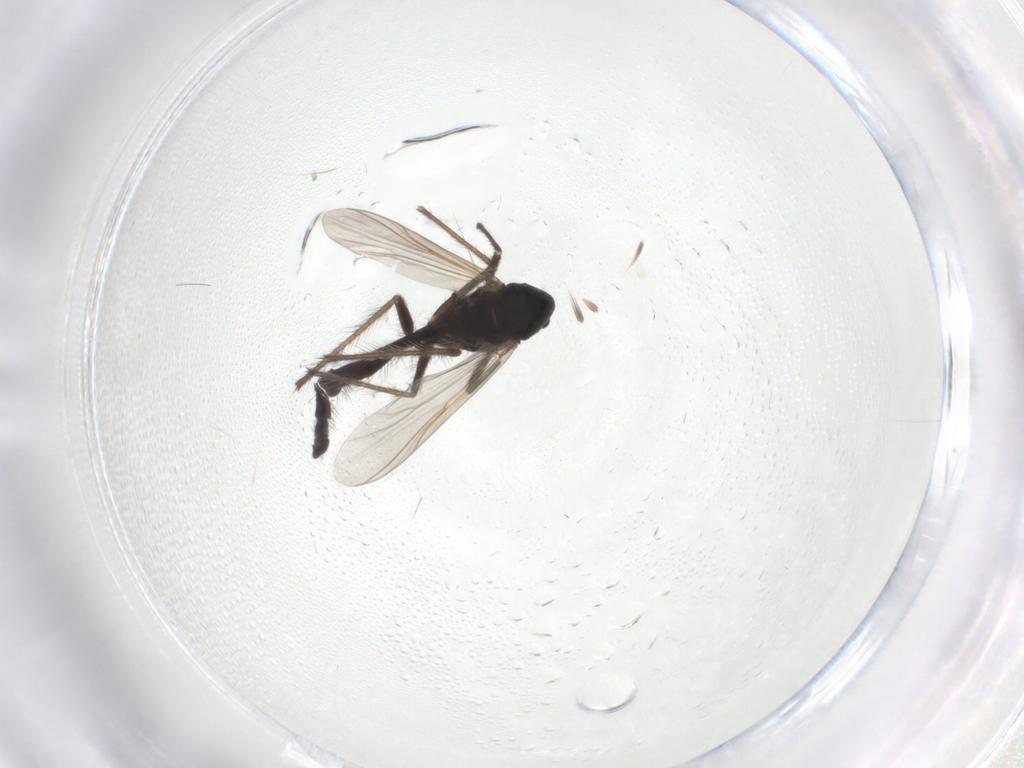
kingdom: Animalia
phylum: Arthropoda
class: Insecta
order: Diptera
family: Chironomidae
